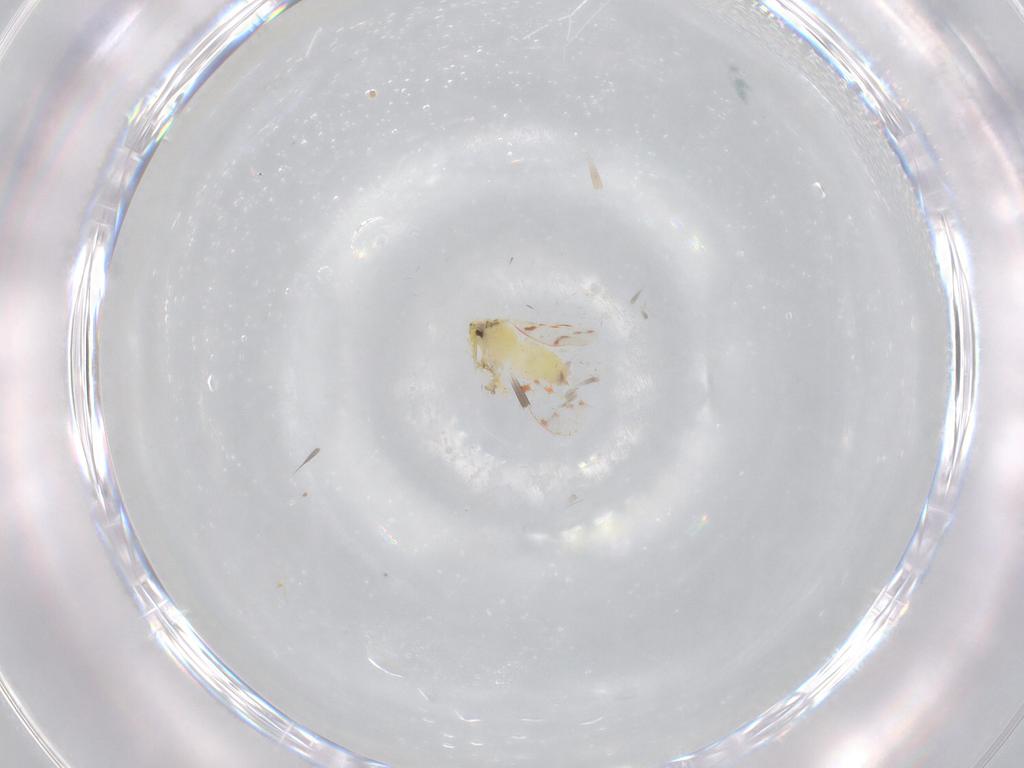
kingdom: Animalia
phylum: Arthropoda
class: Insecta
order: Hemiptera
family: Aleyrodidae
